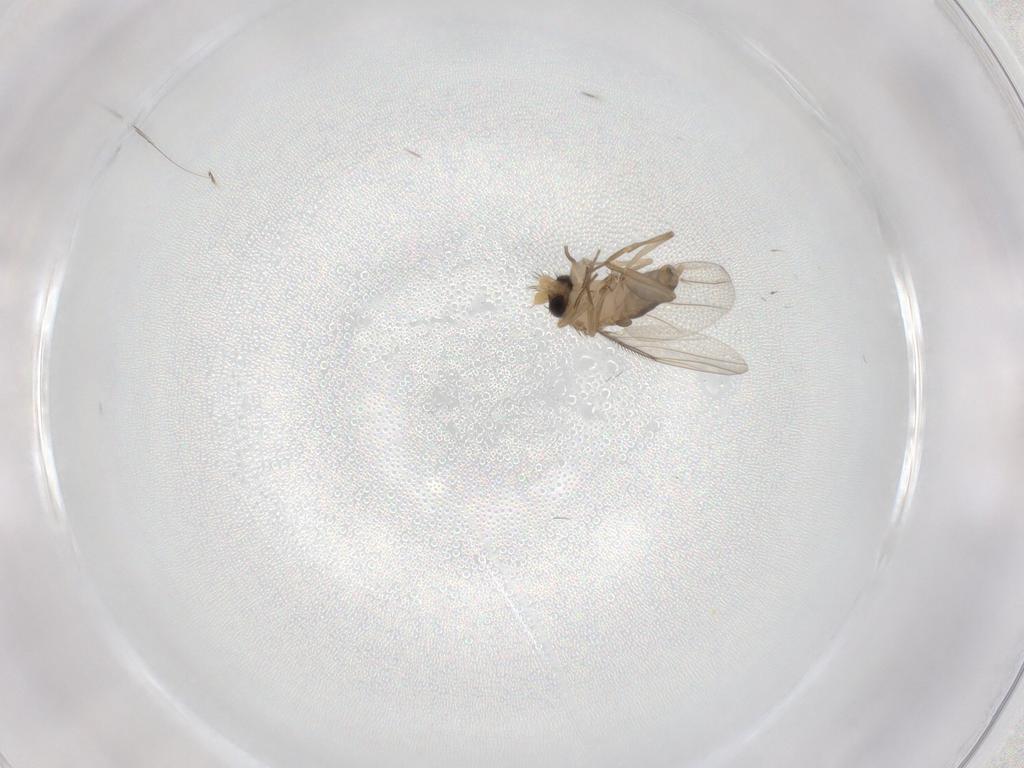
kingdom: Animalia
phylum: Arthropoda
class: Insecta
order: Diptera
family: Phoridae
